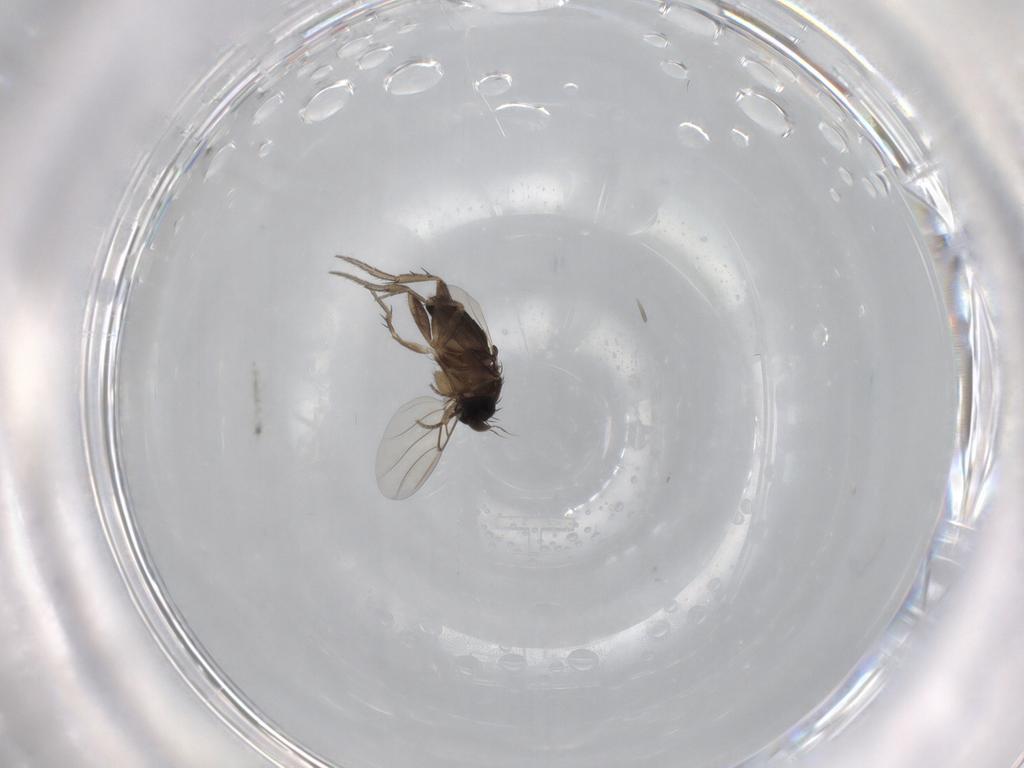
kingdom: Animalia
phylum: Arthropoda
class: Insecta
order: Diptera
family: Phoridae
